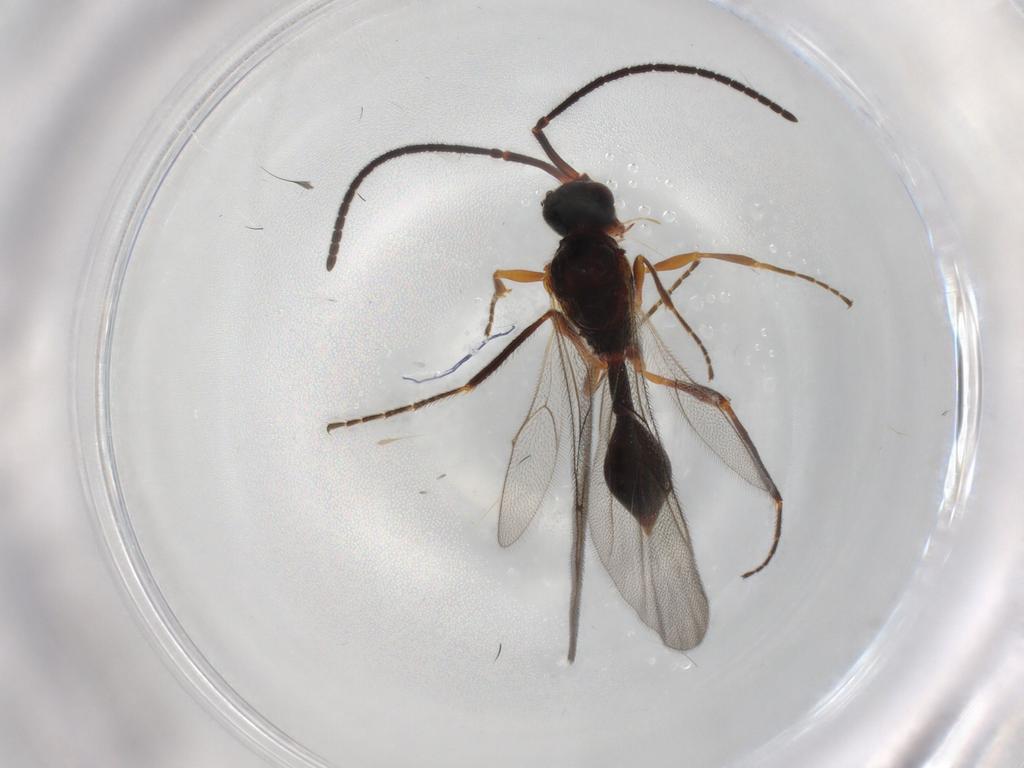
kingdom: Animalia
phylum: Arthropoda
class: Insecta
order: Hymenoptera
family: Diapriidae
